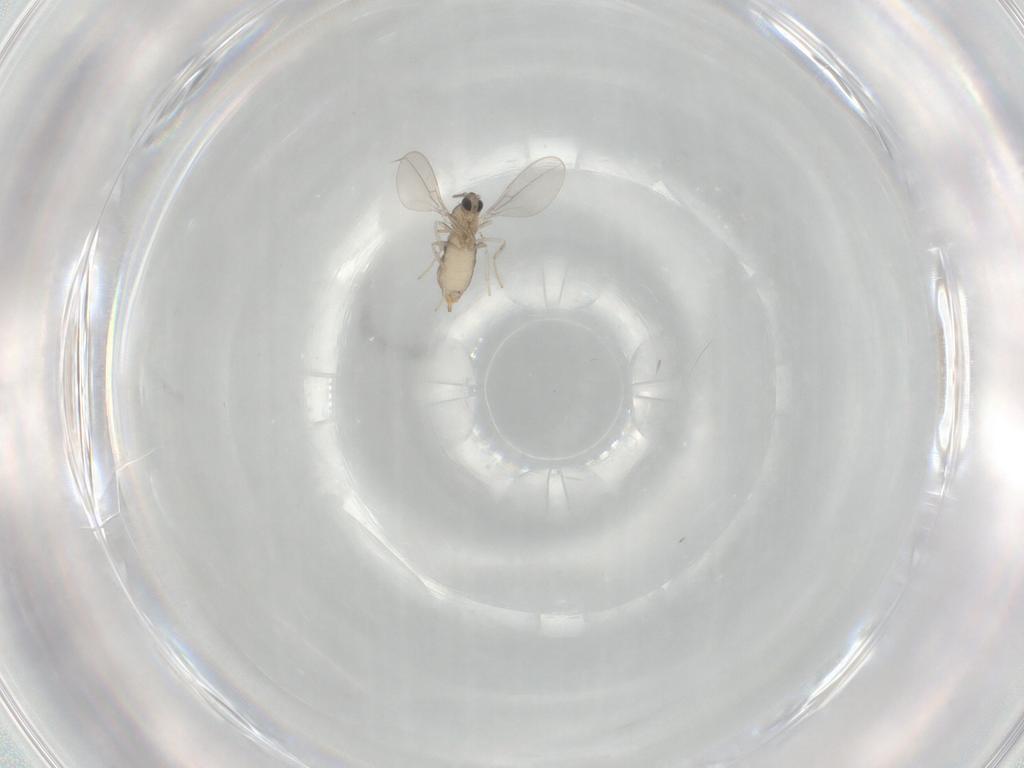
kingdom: Animalia
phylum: Arthropoda
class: Insecta
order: Diptera
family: Cecidomyiidae
